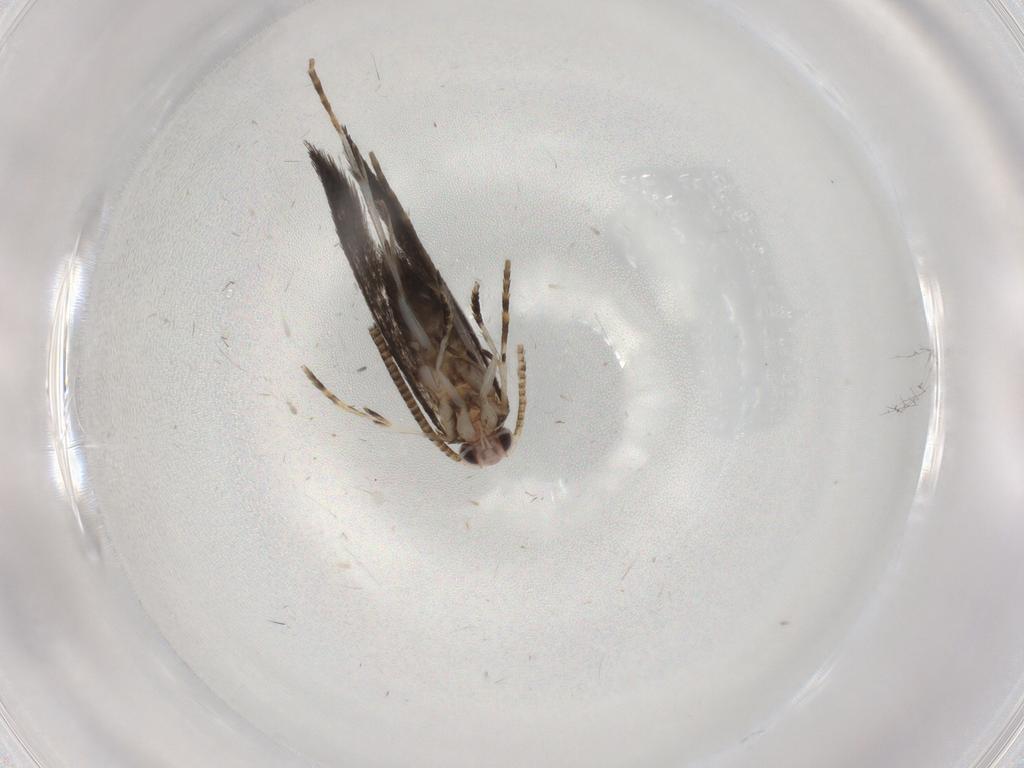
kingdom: Animalia
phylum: Arthropoda
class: Insecta
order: Lepidoptera
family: Tineidae
